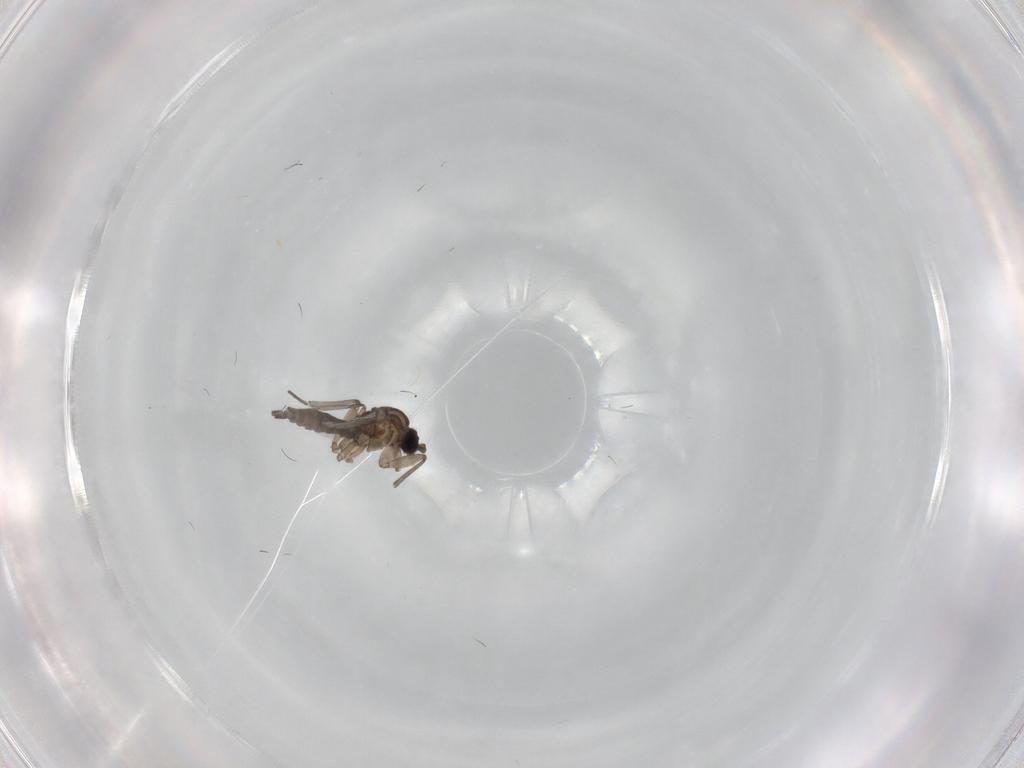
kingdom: Animalia
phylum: Arthropoda
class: Insecta
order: Diptera
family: Sciaridae
